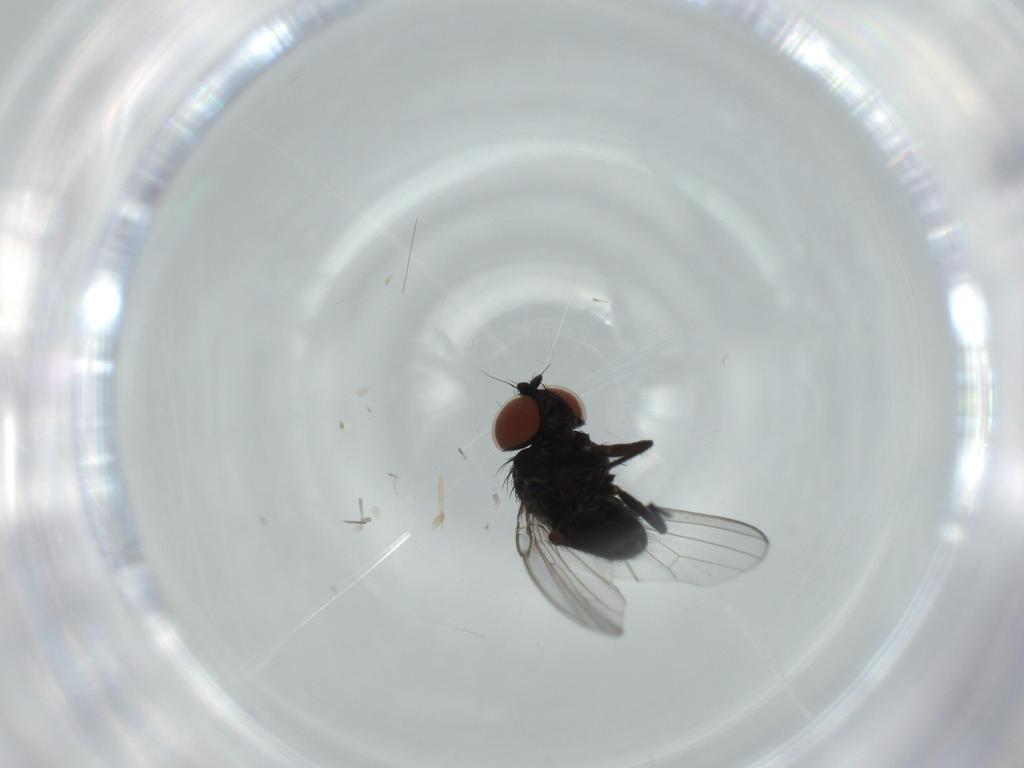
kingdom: Animalia
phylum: Arthropoda
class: Insecta
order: Diptera
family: Milichiidae
